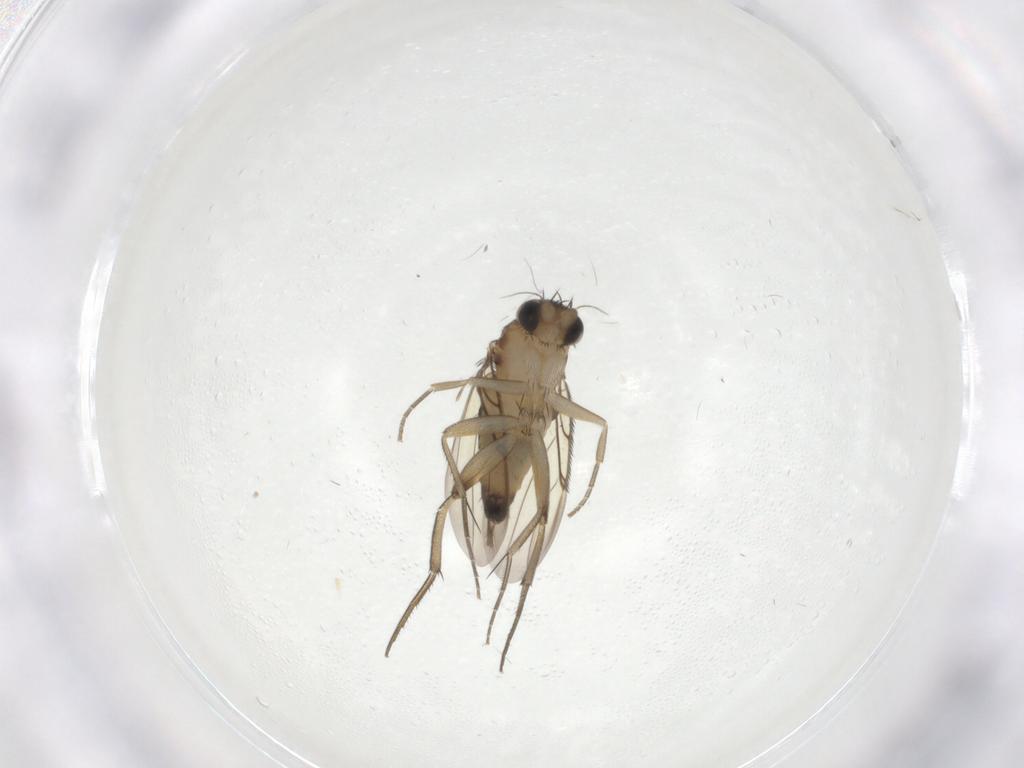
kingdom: Animalia
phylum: Arthropoda
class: Insecta
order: Diptera
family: Phoridae
